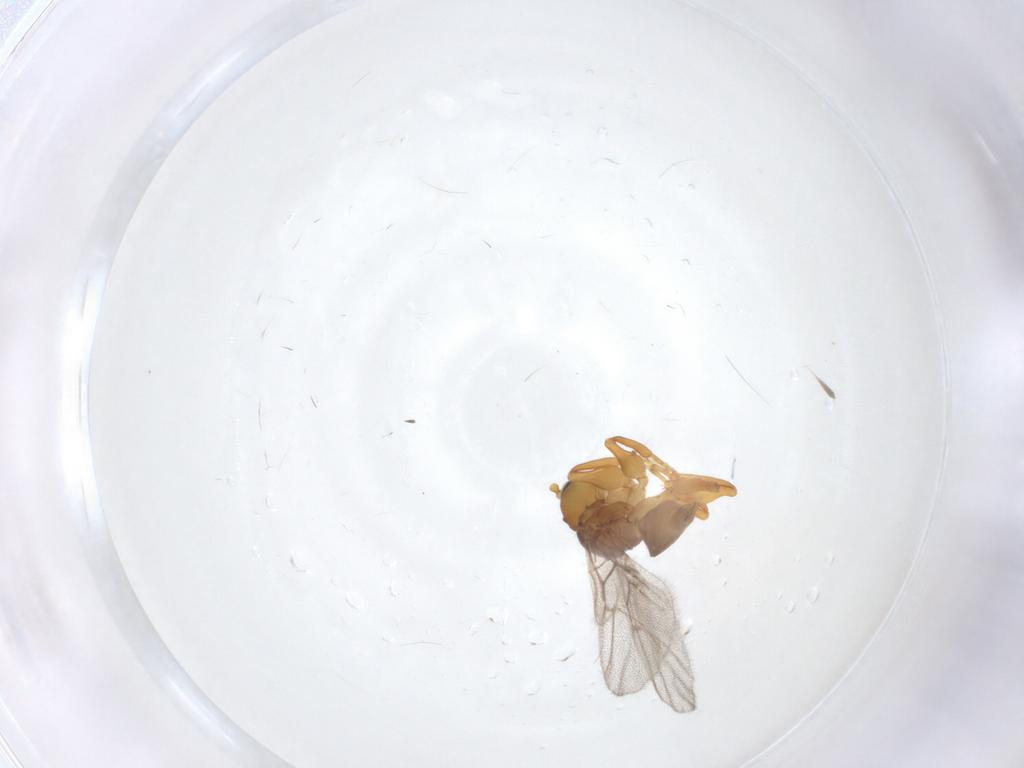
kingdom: Animalia
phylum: Arthropoda
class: Insecta
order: Hymenoptera
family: Cynipidae
